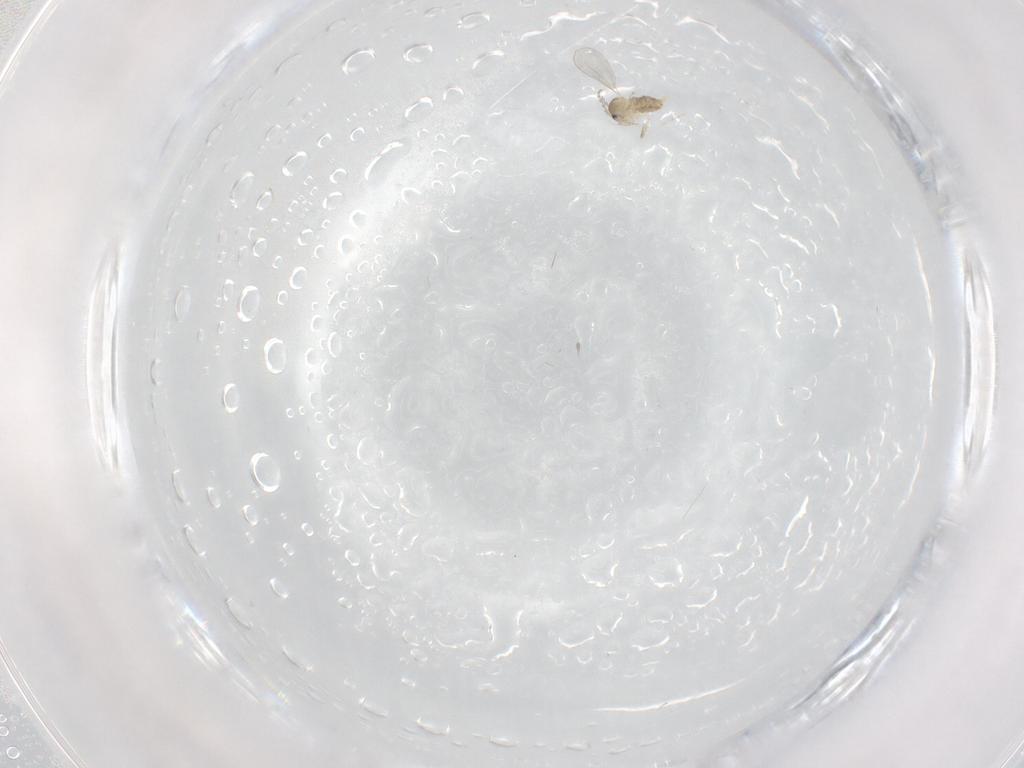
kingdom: Animalia
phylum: Arthropoda
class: Insecta
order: Diptera
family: Cecidomyiidae
